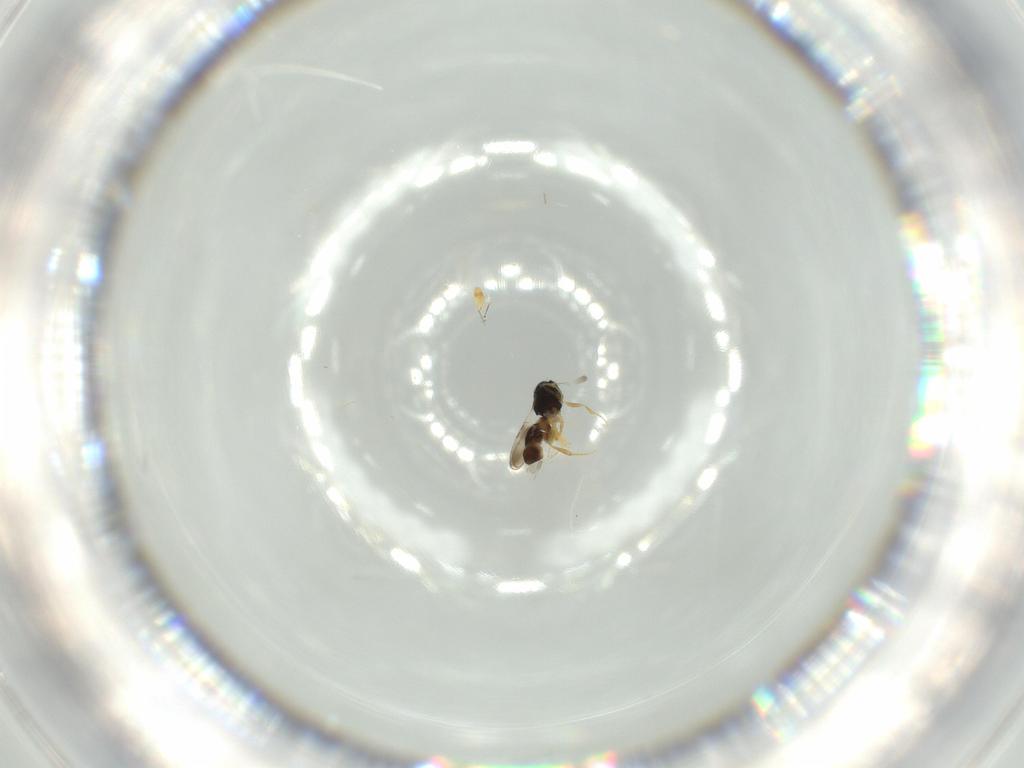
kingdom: Animalia
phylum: Arthropoda
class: Insecta
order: Hymenoptera
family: Ceraphronidae
